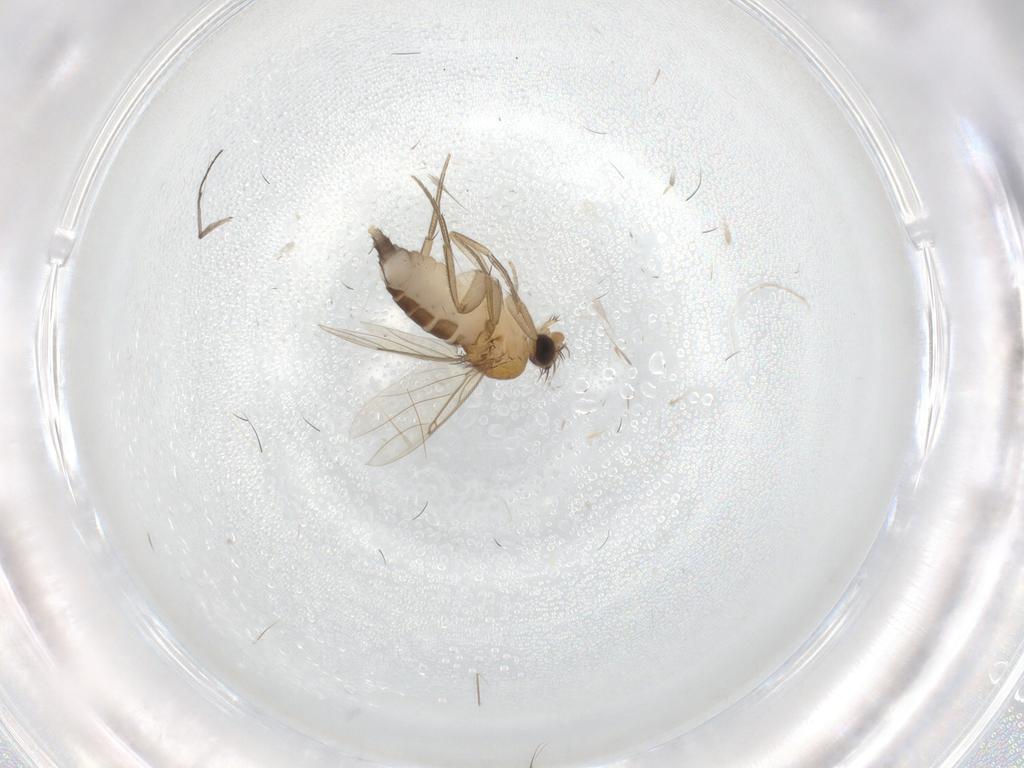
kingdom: Animalia
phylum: Arthropoda
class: Insecta
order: Diptera
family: Phoridae
